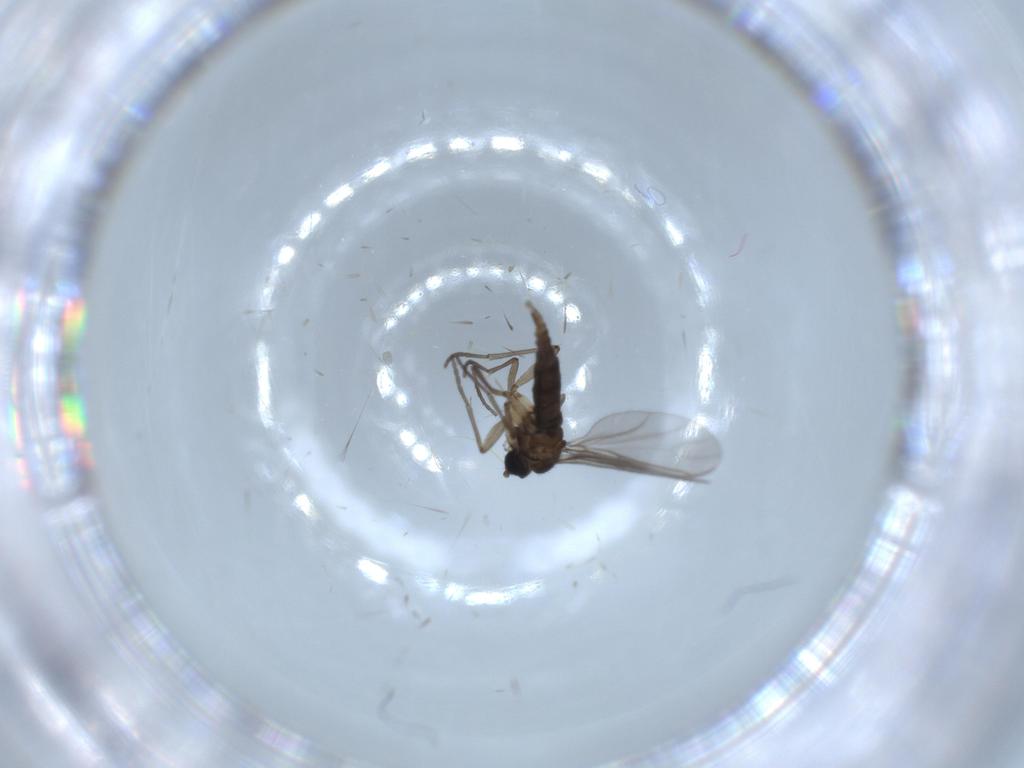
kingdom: Animalia
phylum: Arthropoda
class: Insecta
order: Diptera
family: Sciaridae
